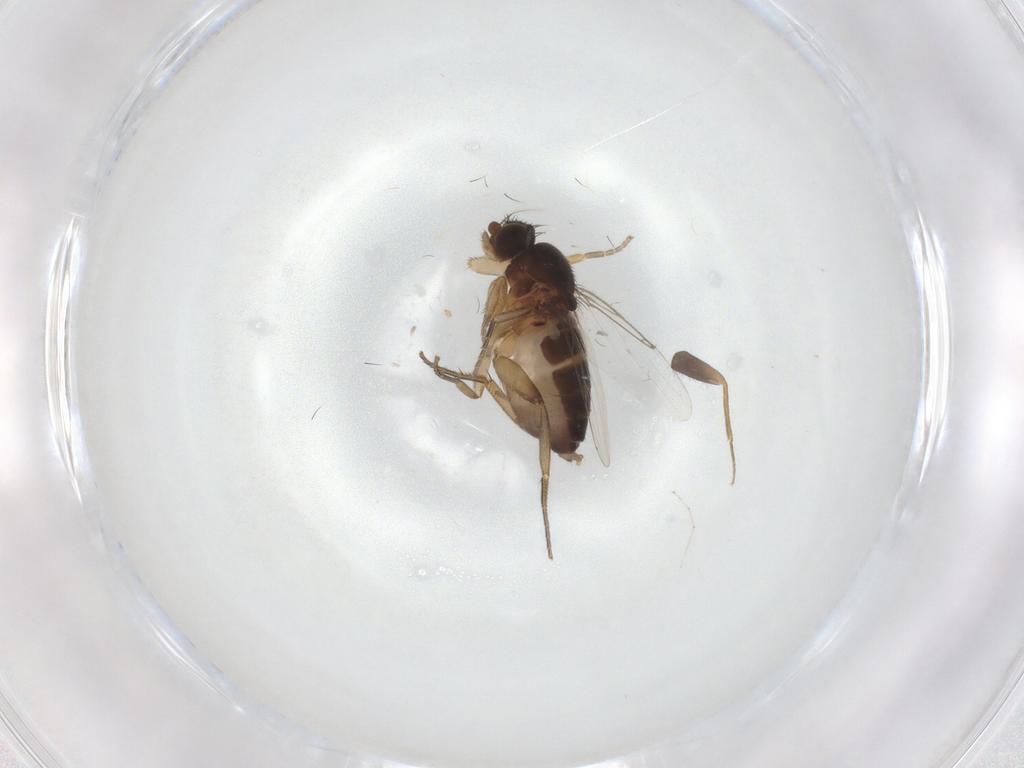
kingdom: Animalia
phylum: Arthropoda
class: Insecta
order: Diptera
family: Phoridae
